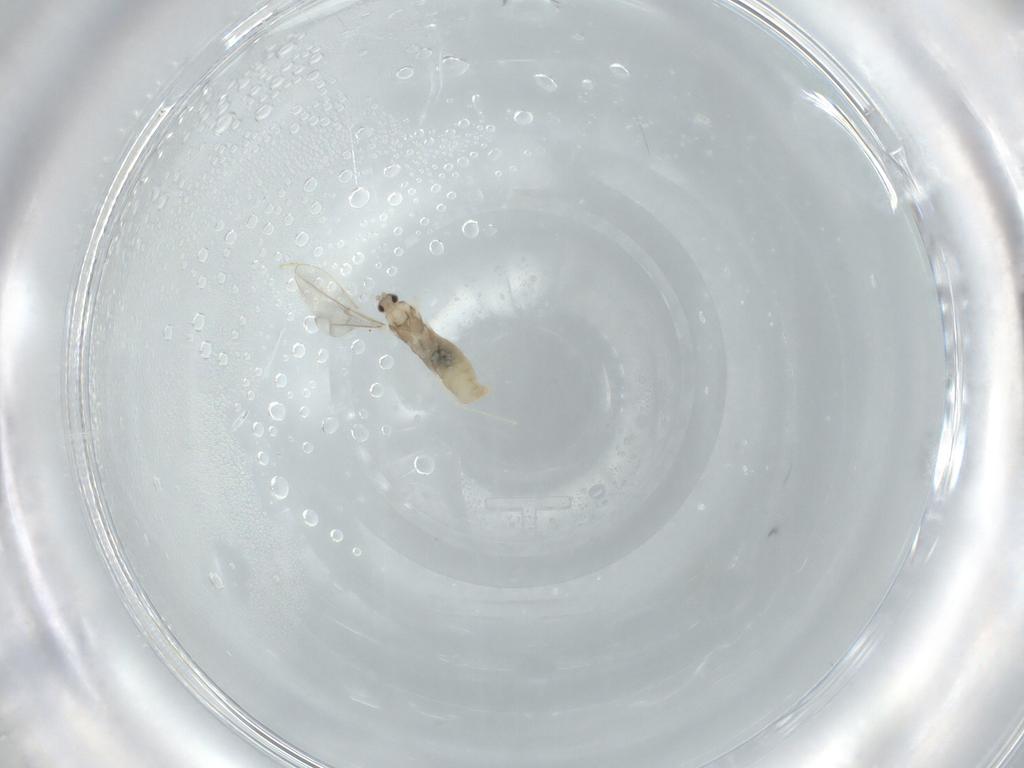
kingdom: Animalia
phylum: Arthropoda
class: Insecta
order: Diptera
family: Cecidomyiidae
